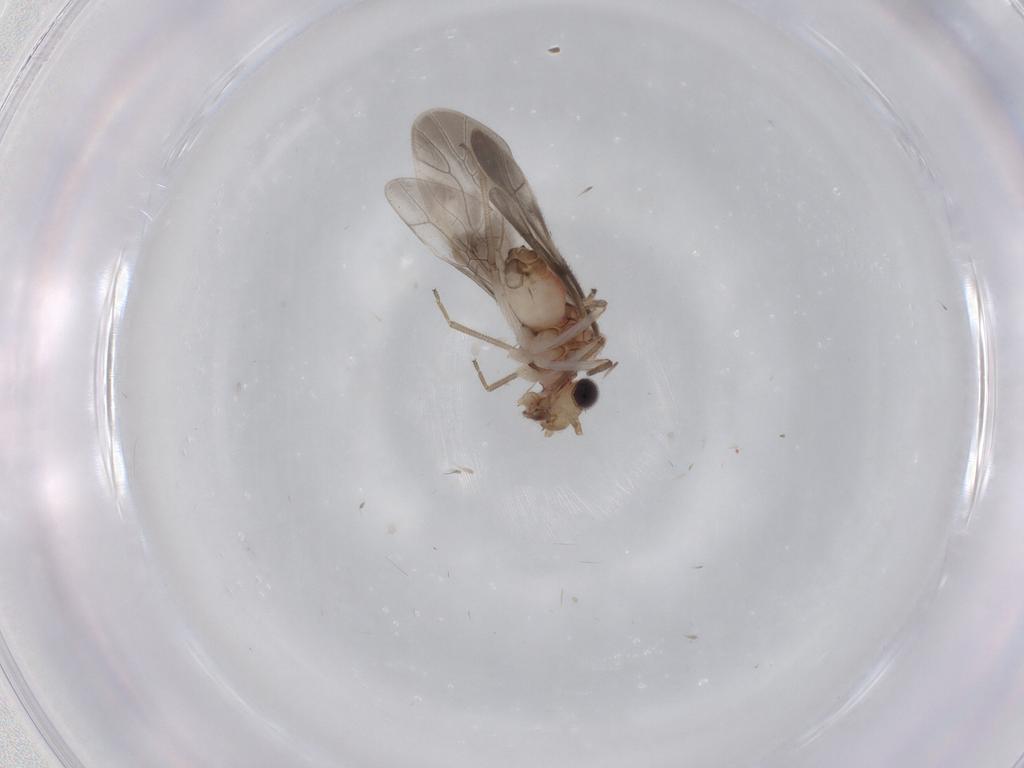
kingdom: Animalia
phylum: Arthropoda
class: Insecta
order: Psocodea
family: Caeciliusidae
